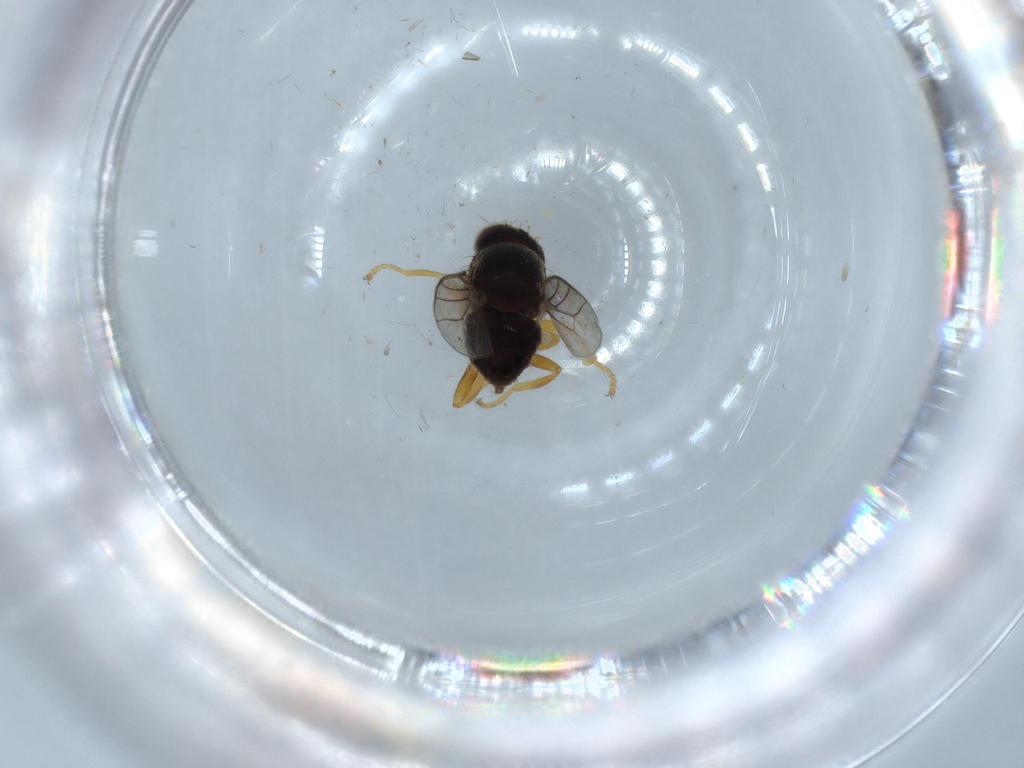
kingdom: Animalia
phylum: Arthropoda
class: Insecta
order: Diptera
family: Chloropidae
